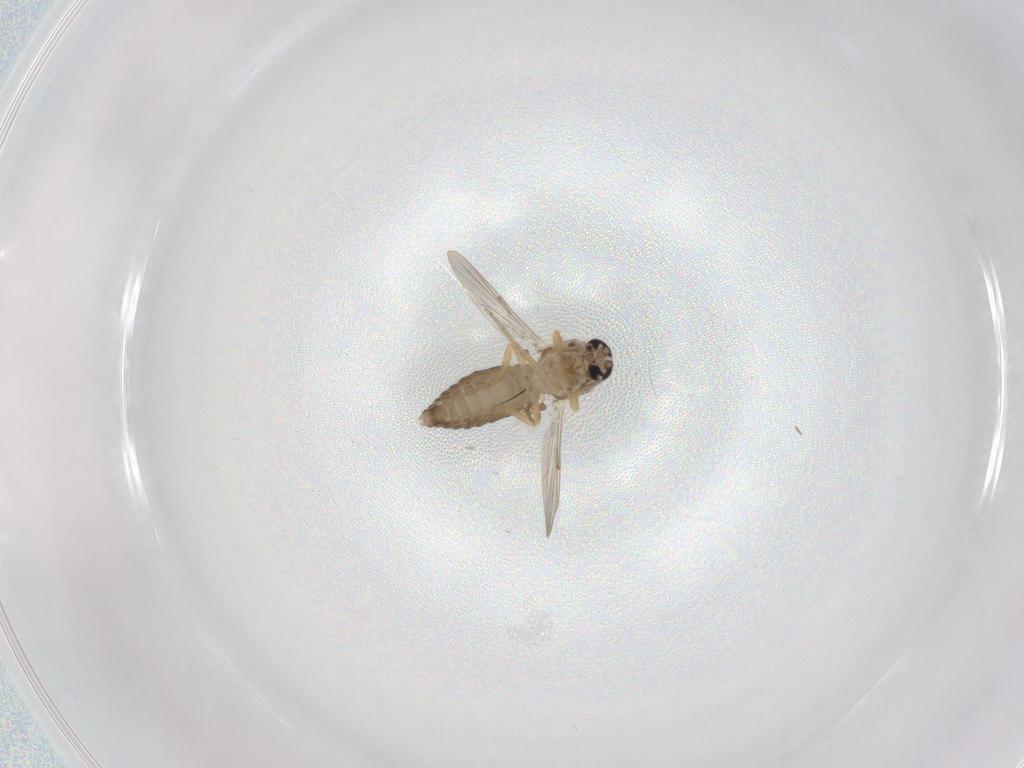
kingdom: Animalia
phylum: Arthropoda
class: Insecta
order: Diptera
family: Ceratopogonidae
